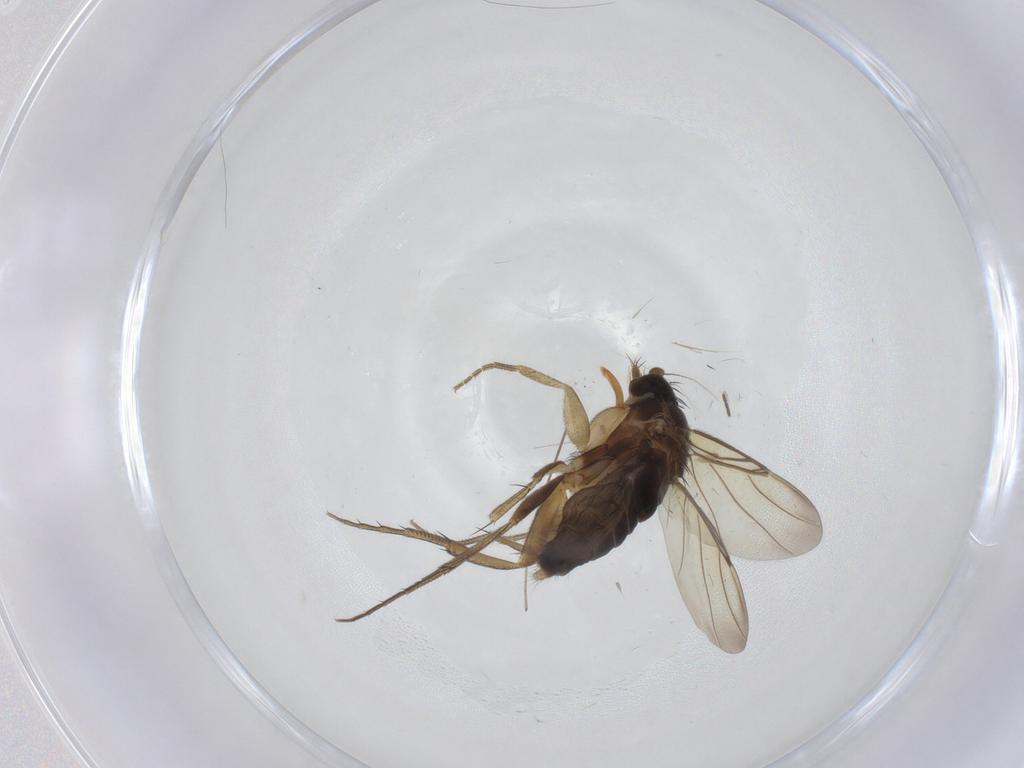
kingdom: Animalia
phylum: Arthropoda
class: Insecta
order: Diptera
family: Phoridae
